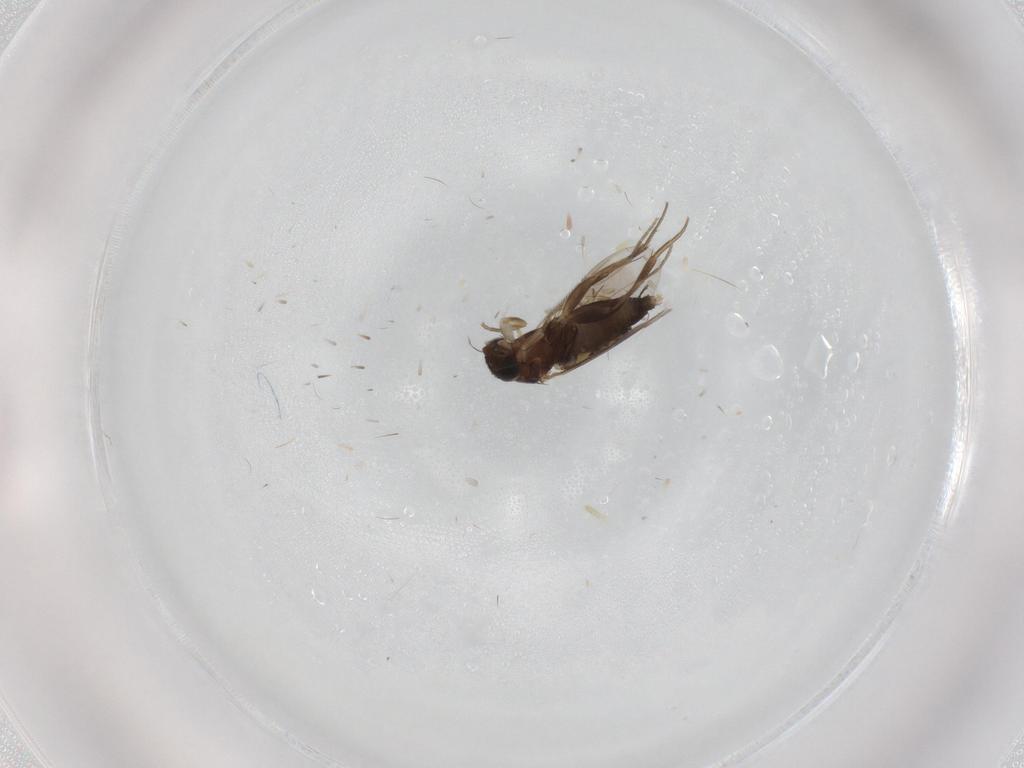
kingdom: Animalia
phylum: Arthropoda
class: Insecta
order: Diptera
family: Phoridae
